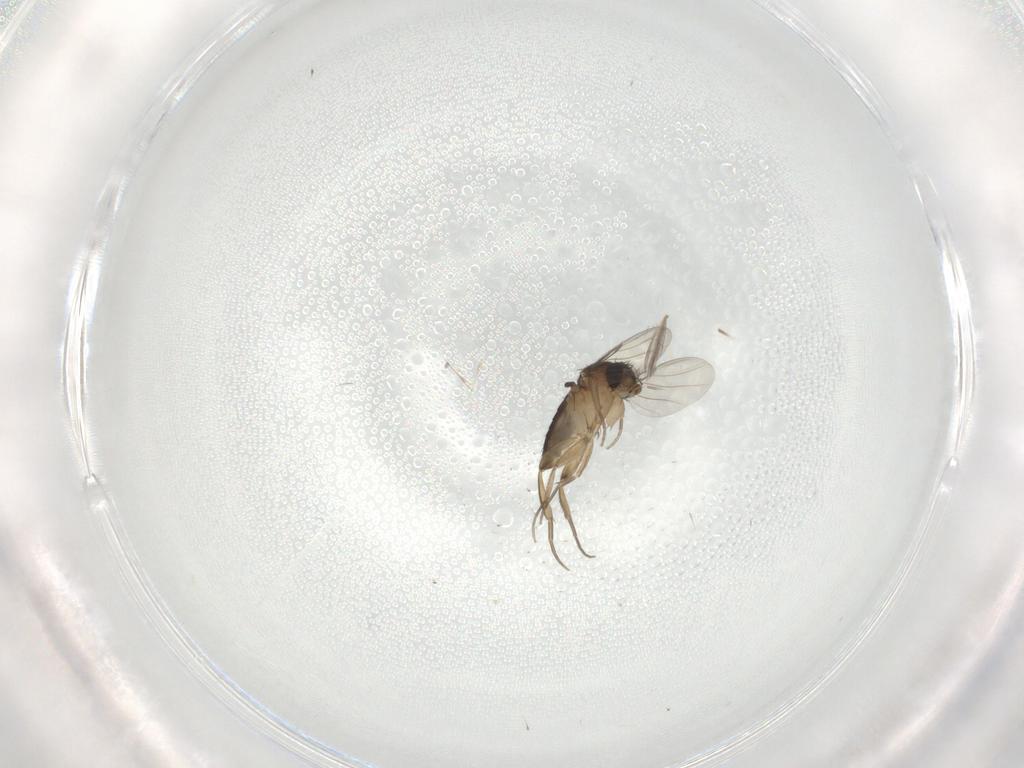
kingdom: Animalia
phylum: Arthropoda
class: Insecta
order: Diptera
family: Phoridae
